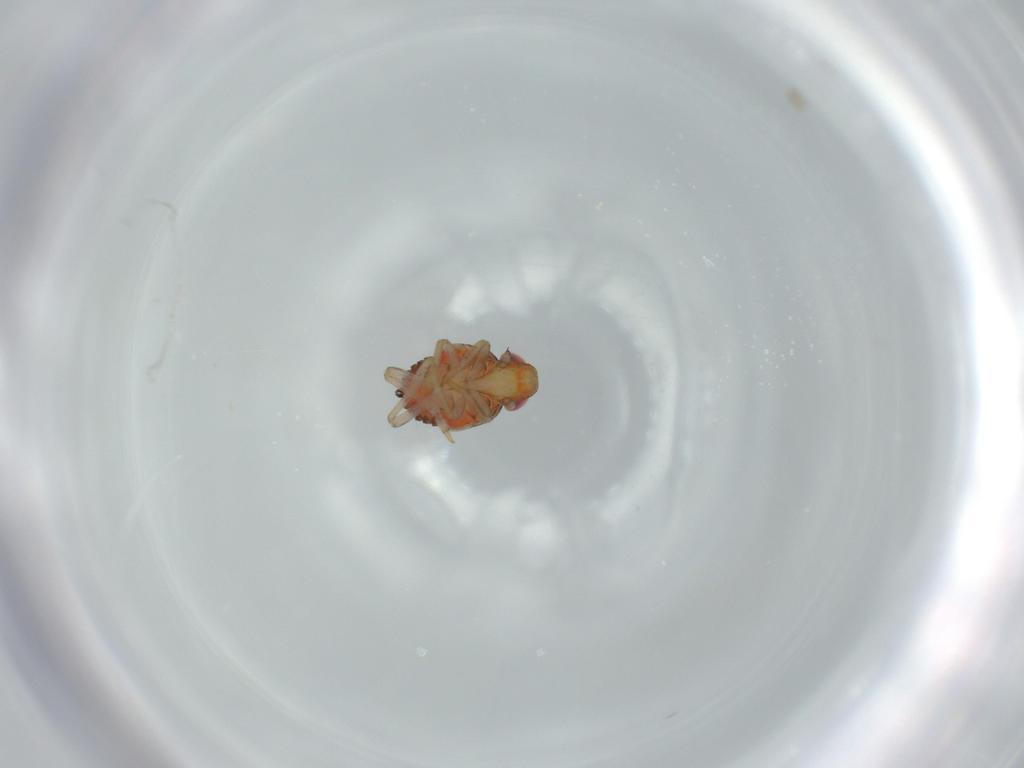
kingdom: Animalia
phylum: Arthropoda
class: Insecta
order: Hemiptera
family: Issidae
